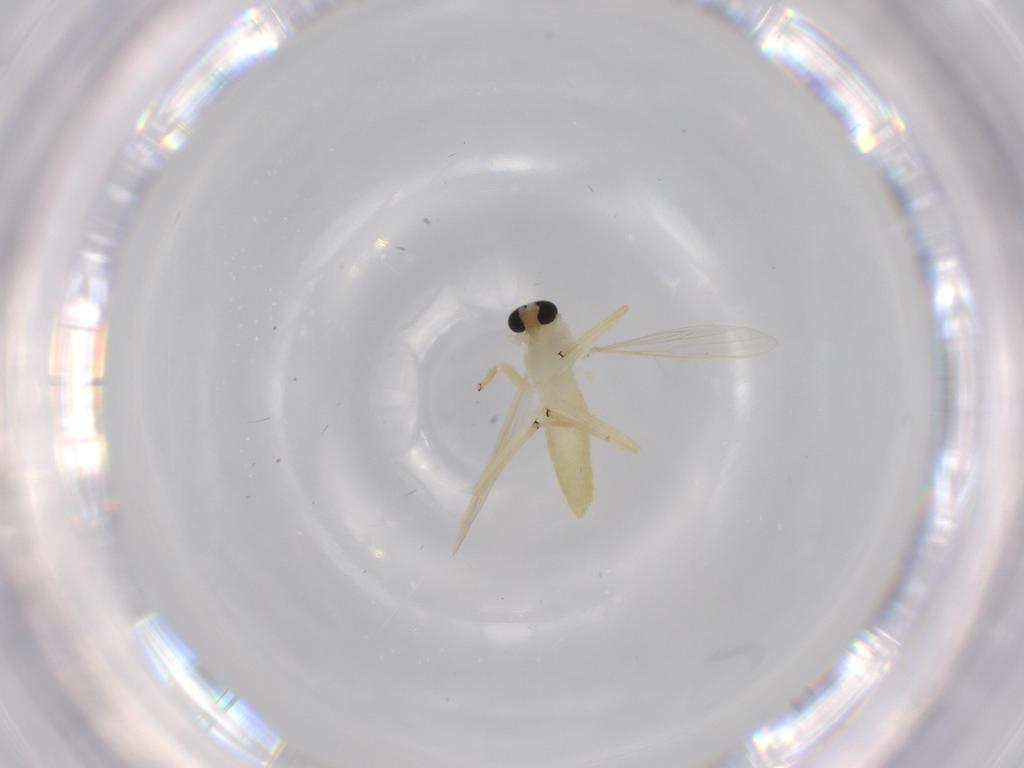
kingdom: Animalia
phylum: Arthropoda
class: Insecta
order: Diptera
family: Chironomidae
